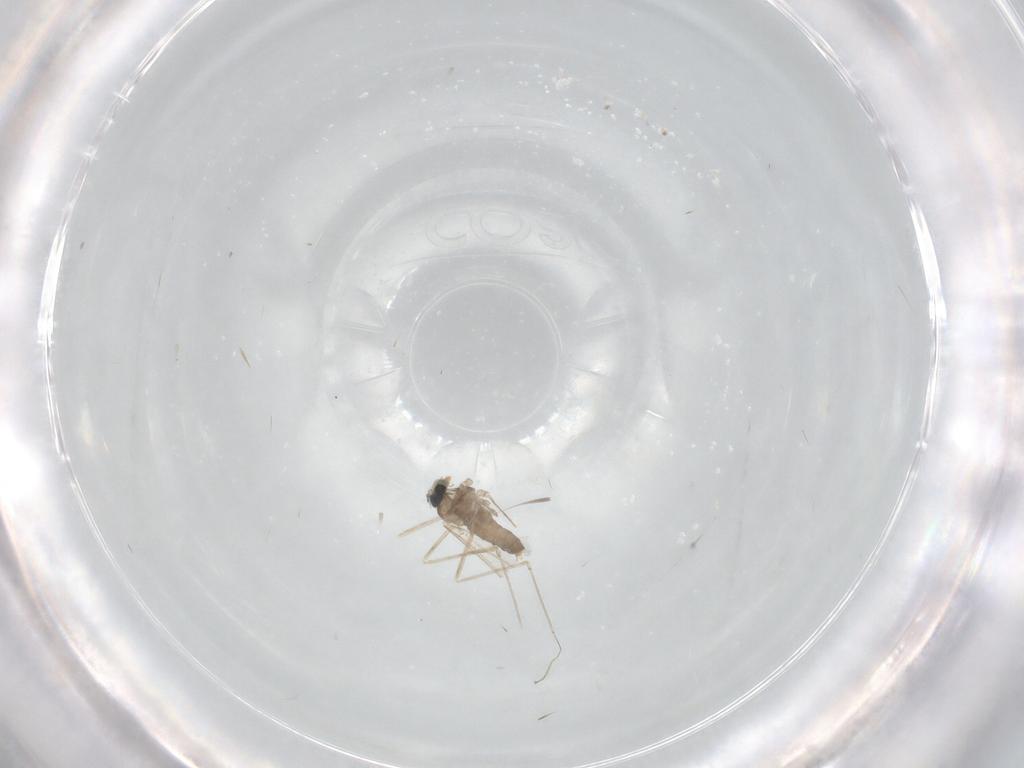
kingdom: Animalia
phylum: Arthropoda
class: Insecta
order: Diptera
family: Cecidomyiidae
